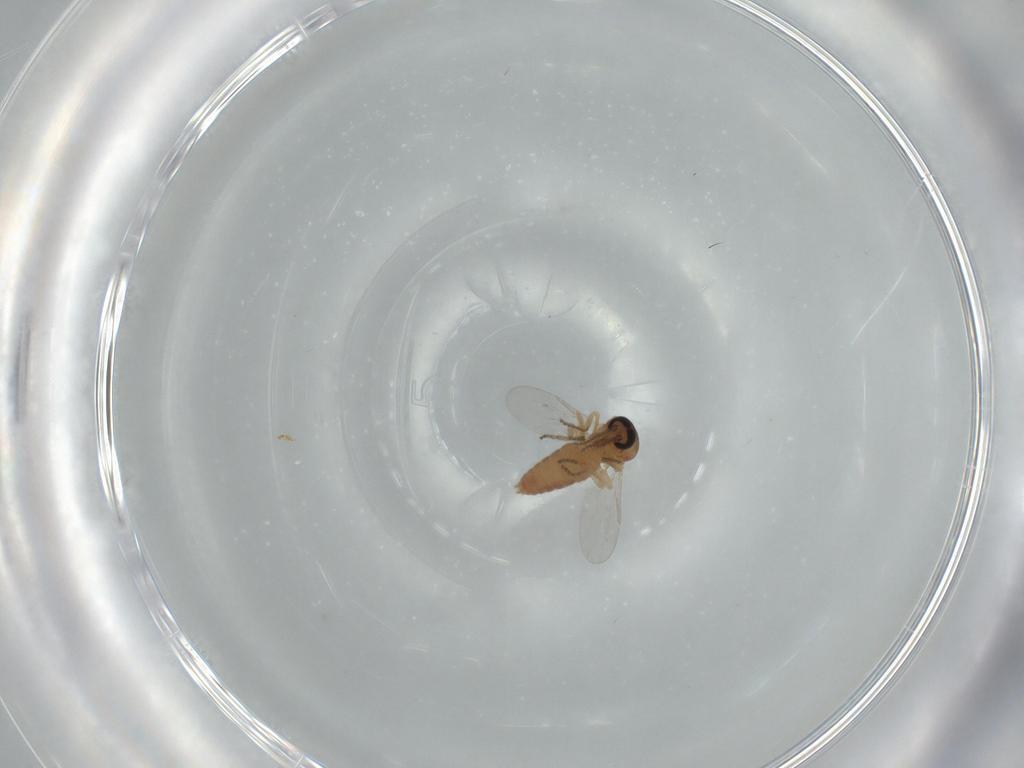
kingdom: Animalia
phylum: Arthropoda
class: Insecta
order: Diptera
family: Ceratopogonidae
